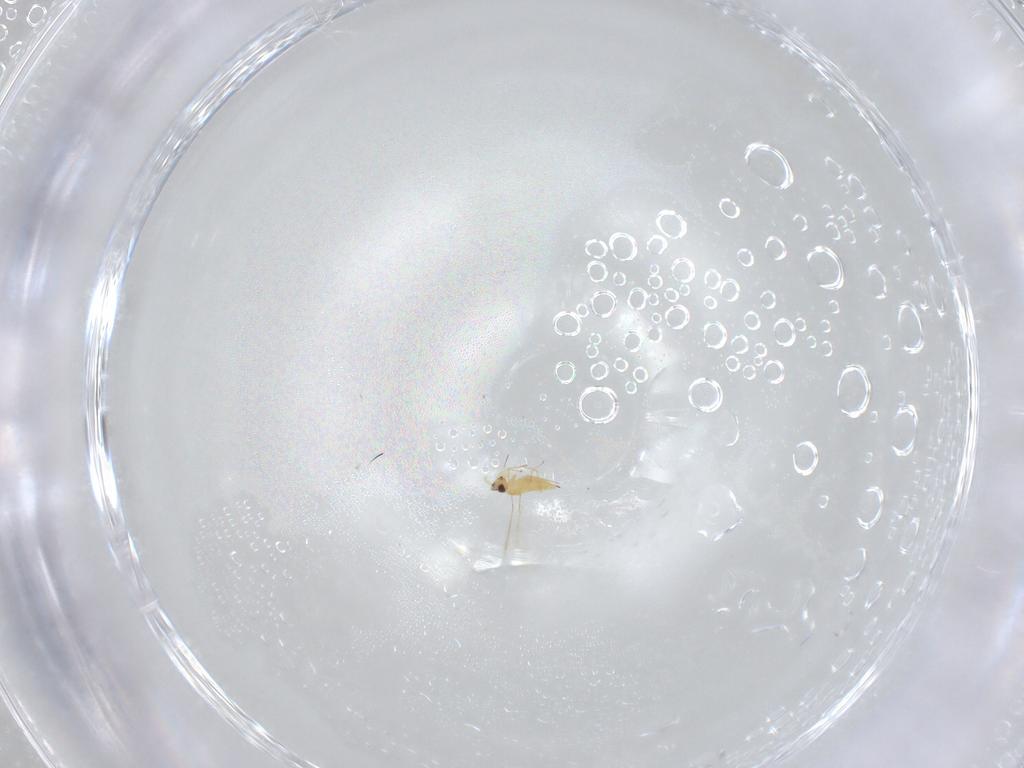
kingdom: Animalia
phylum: Arthropoda
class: Insecta
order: Hymenoptera
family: Mymaridae
